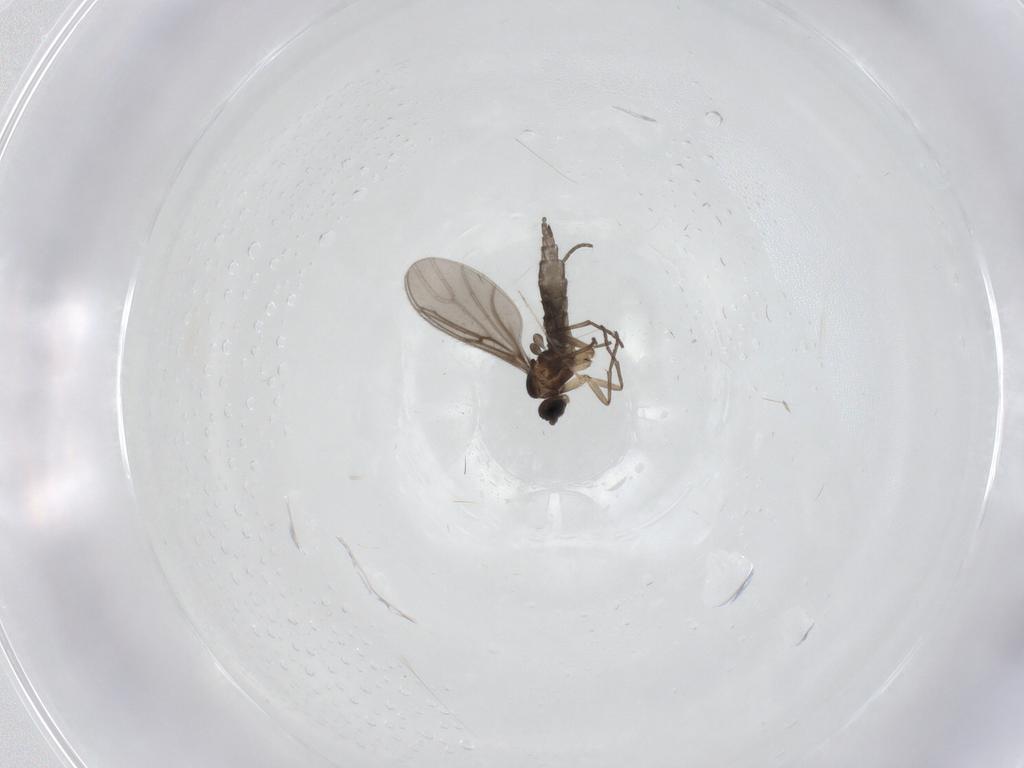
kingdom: Animalia
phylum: Arthropoda
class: Insecta
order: Diptera
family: Sciaridae
